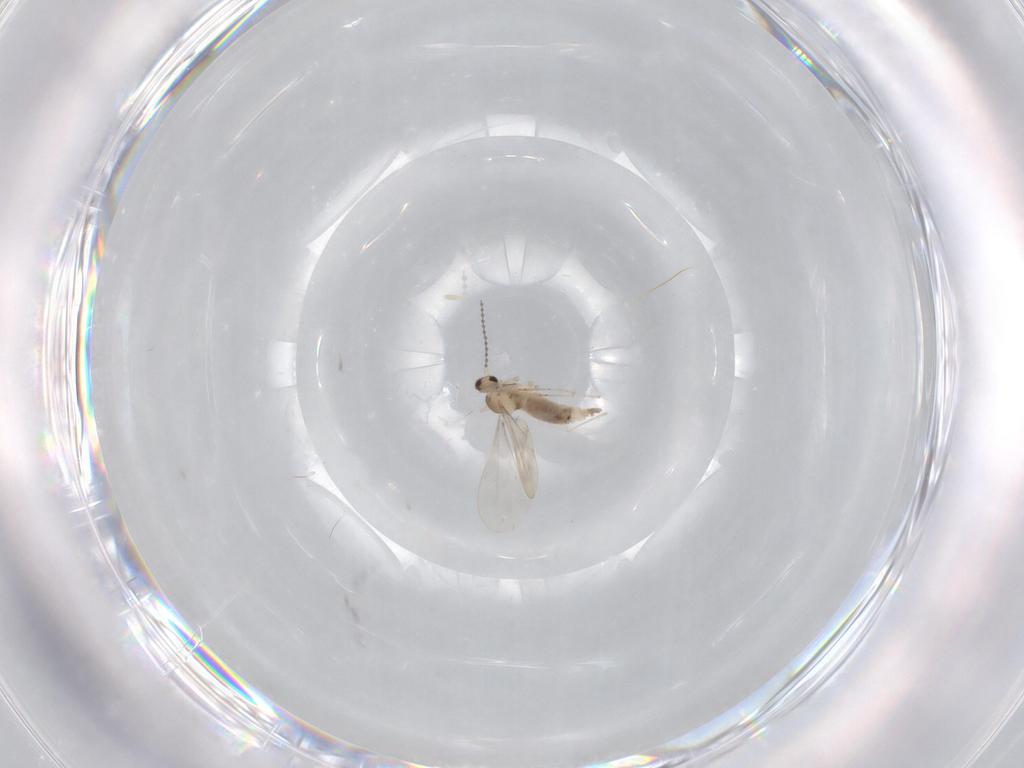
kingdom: Animalia
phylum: Arthropoda
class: Insecta
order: Diptera
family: Cecidomyiidae
